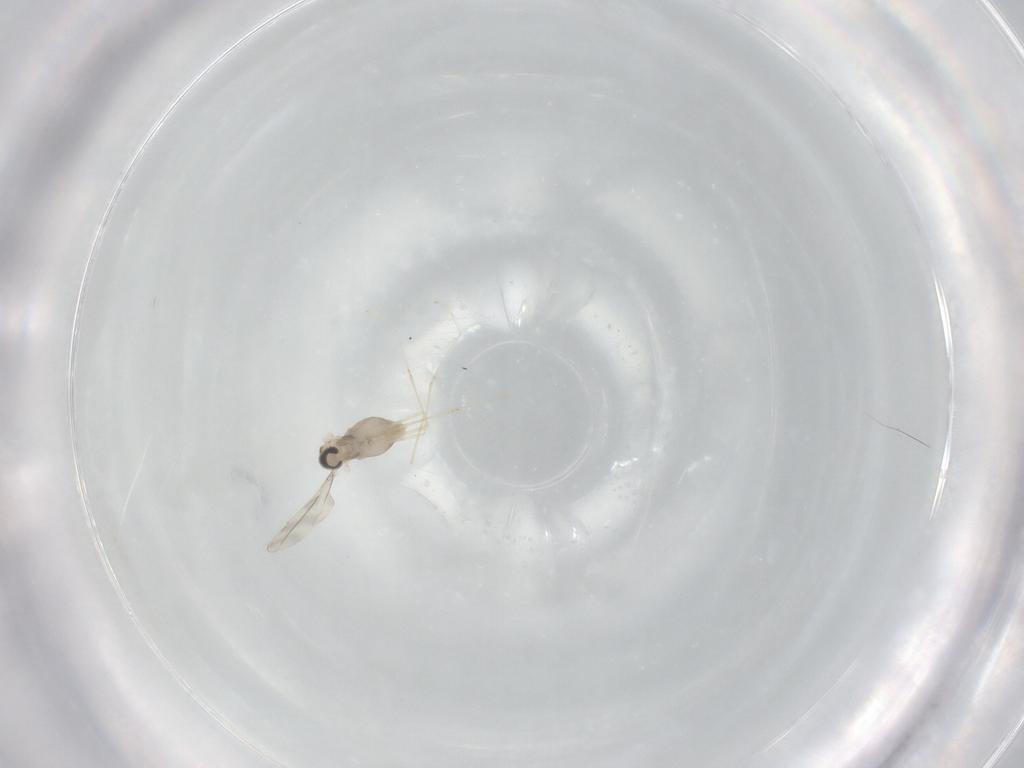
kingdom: Animalia
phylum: Arthropoda
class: Insecta
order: Diptera
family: Cecidomyiidae
